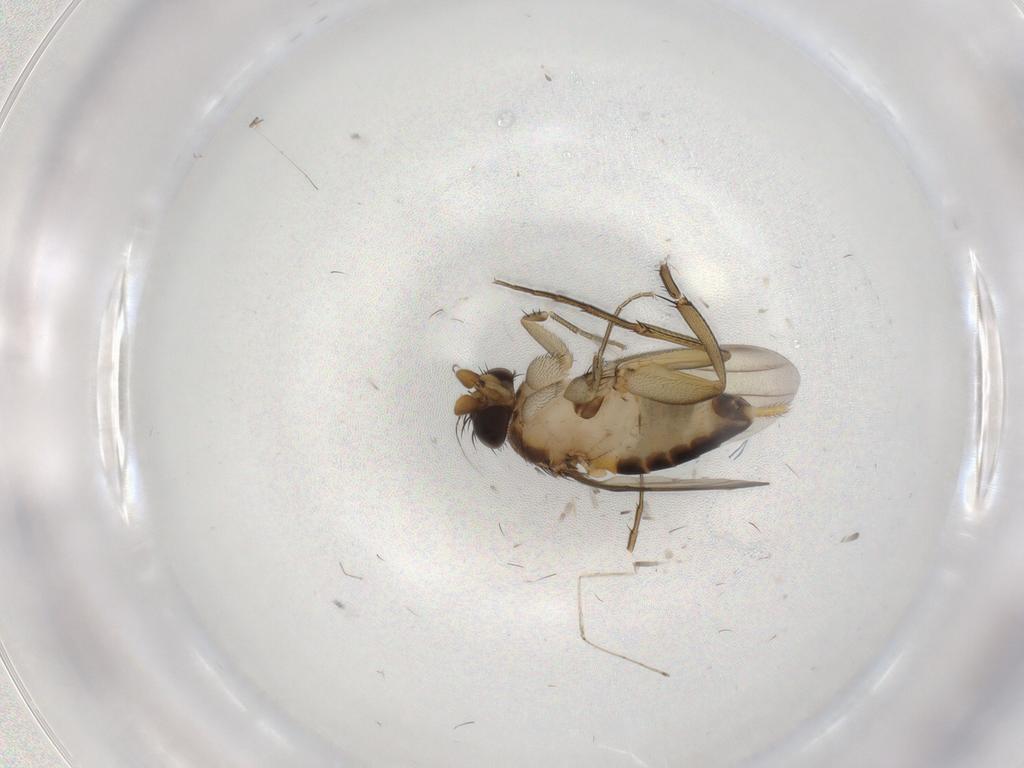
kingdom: Animalia
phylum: Arthropoda
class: Insecta
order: Diptera
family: Phoridae
